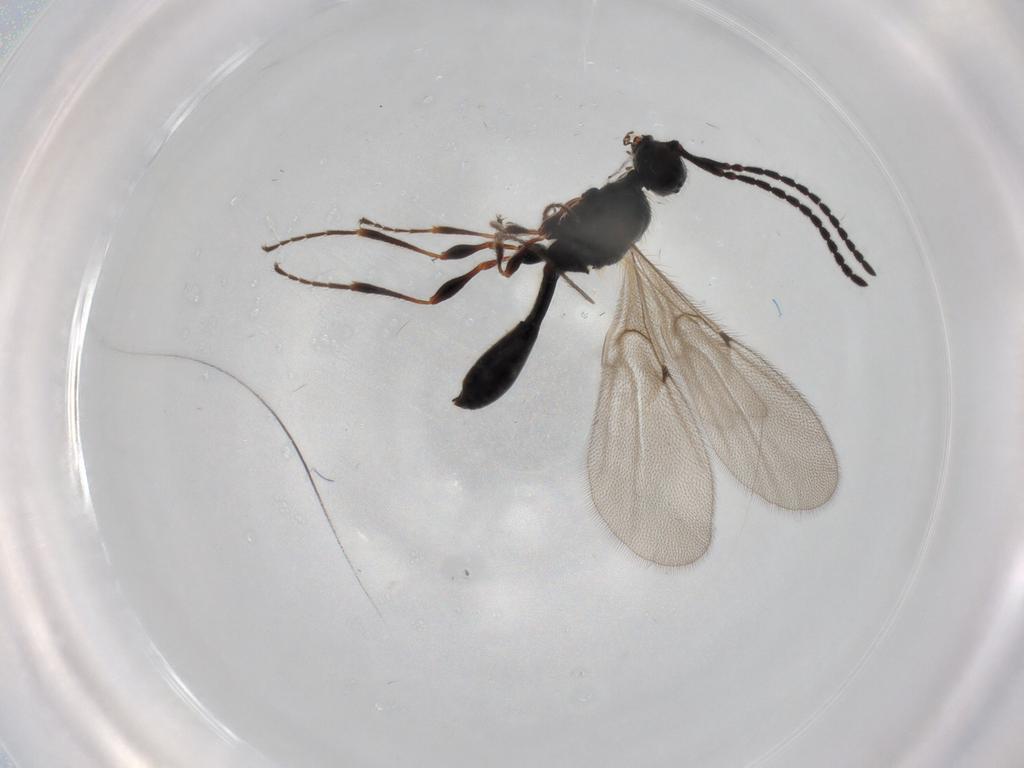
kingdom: Animalia
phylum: Arthropoda
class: Insecta
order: Hymenoptera
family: Diapriidae
